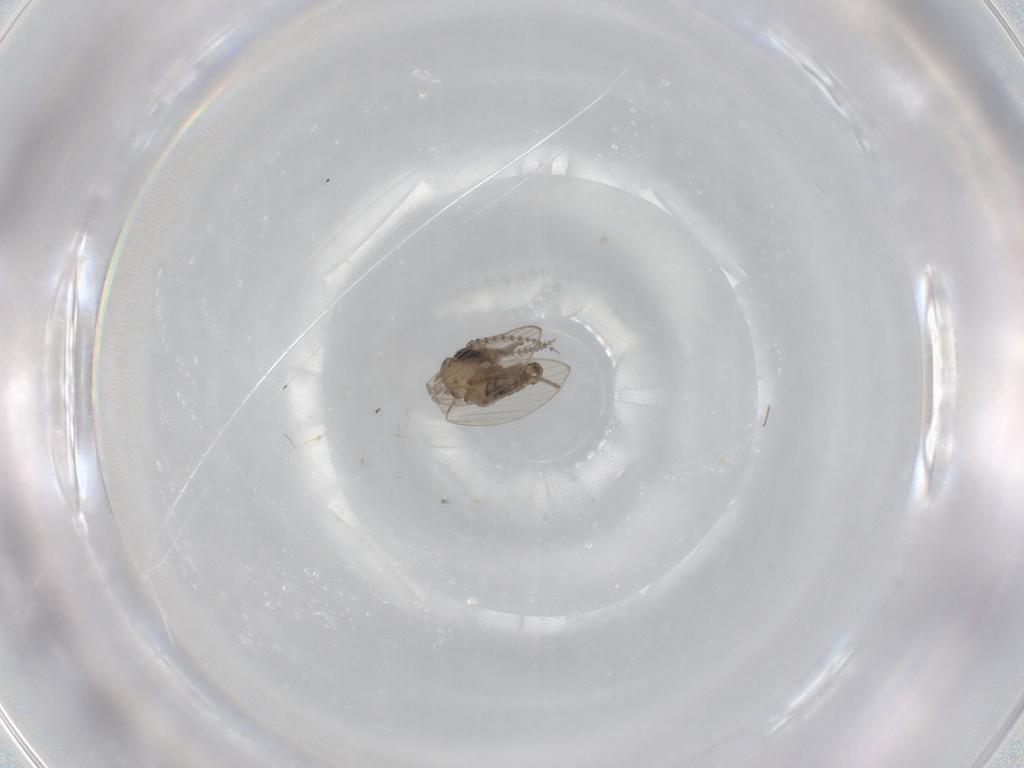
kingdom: Animalia
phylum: Arthropoda
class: Insecta
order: Diptera
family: Psychodidae
